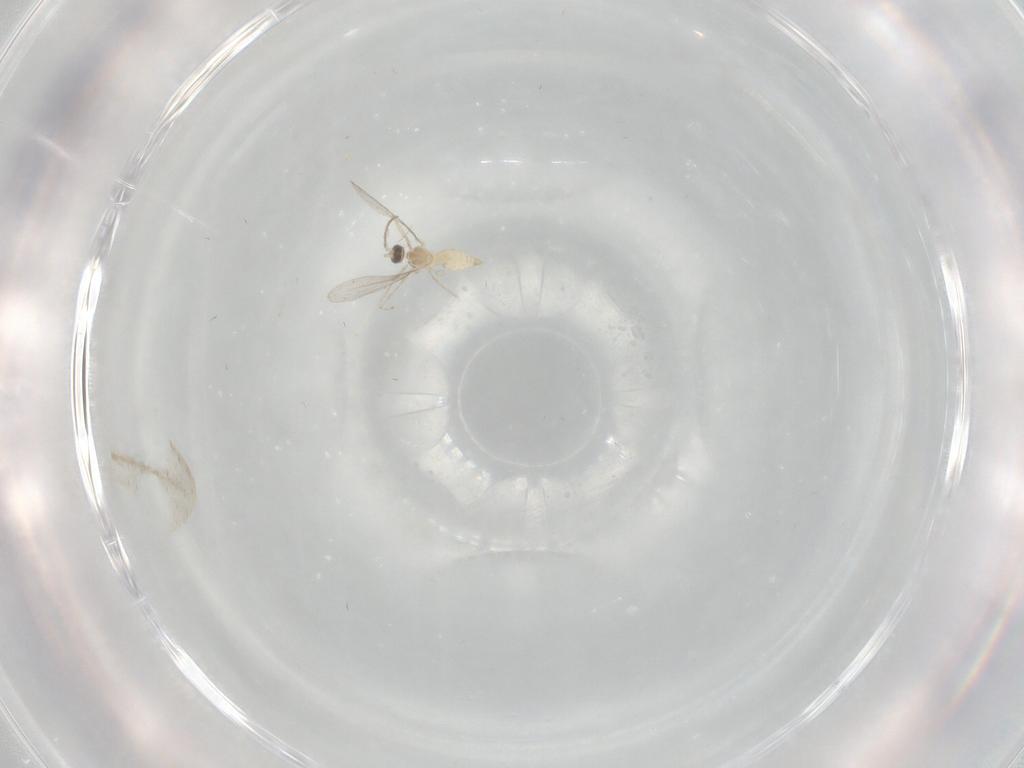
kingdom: Animalia
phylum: Arthropoda
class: Insecta
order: Diptera
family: Cecidomyiidae
